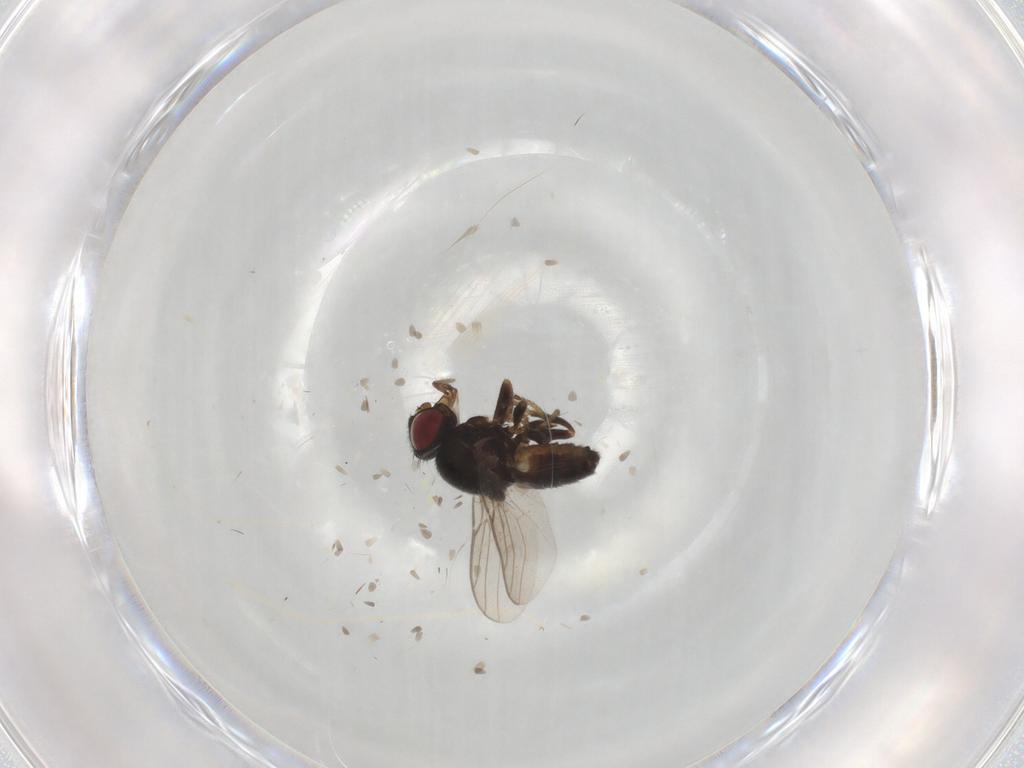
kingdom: Animalia
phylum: Arthropoda
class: Insecta
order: Diptera
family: Chloropidae
